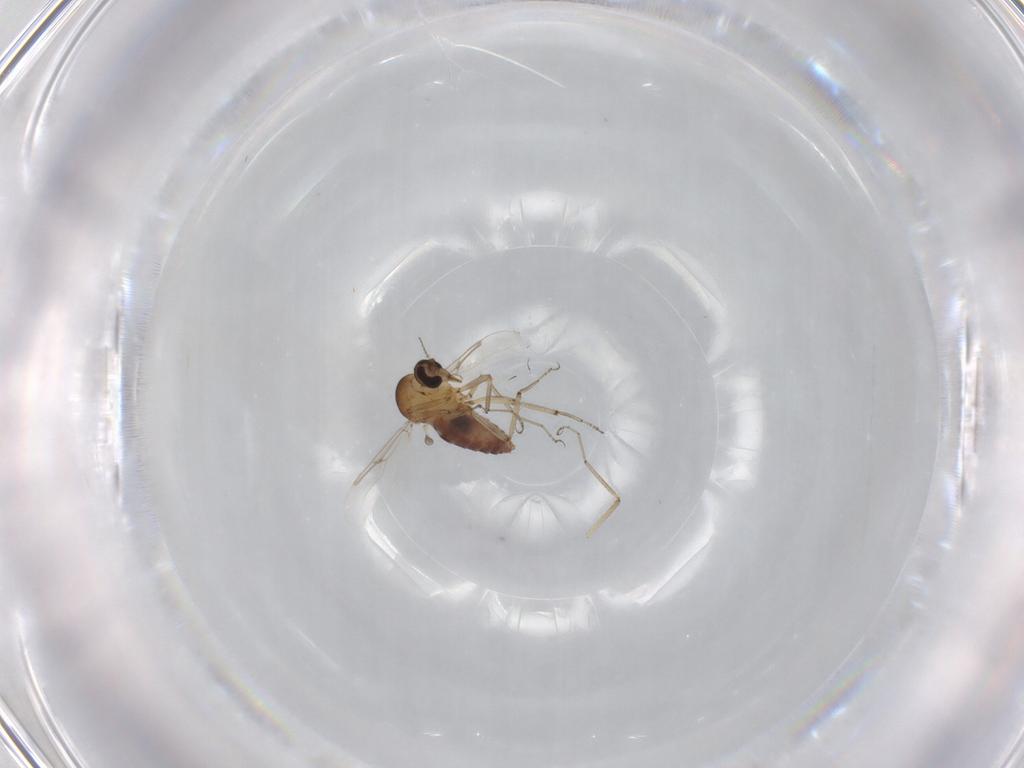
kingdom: Animalia
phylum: Arthropoda
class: Insecta
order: Diptera
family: Ceratopogonidae
